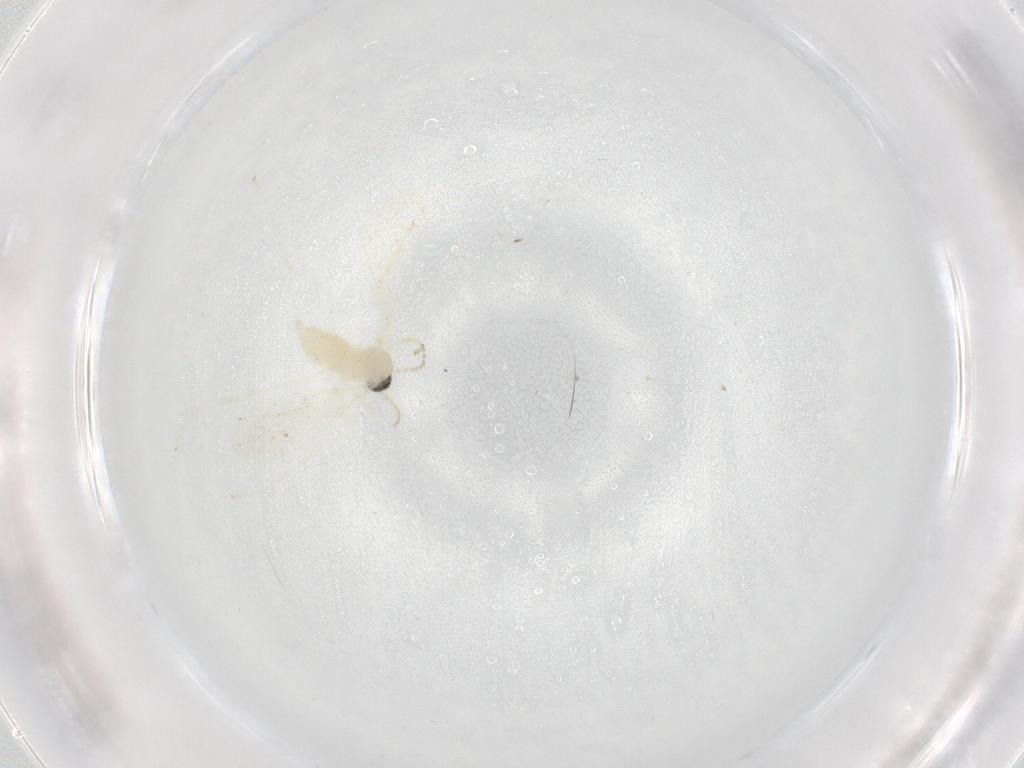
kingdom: Animalia
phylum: Arthropoda
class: Insecta
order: Diptera
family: Cecidomyiidae
